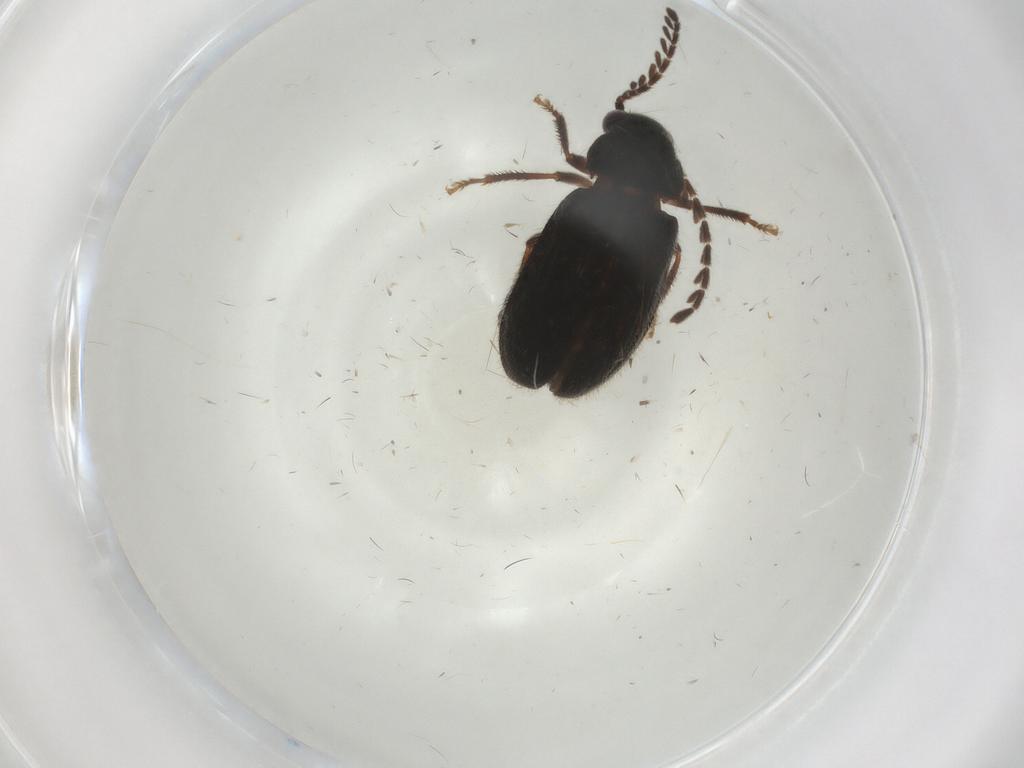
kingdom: Animalia
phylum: Arthropoda
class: Insecta
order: Coleoptera
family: Ptilodactylidae
